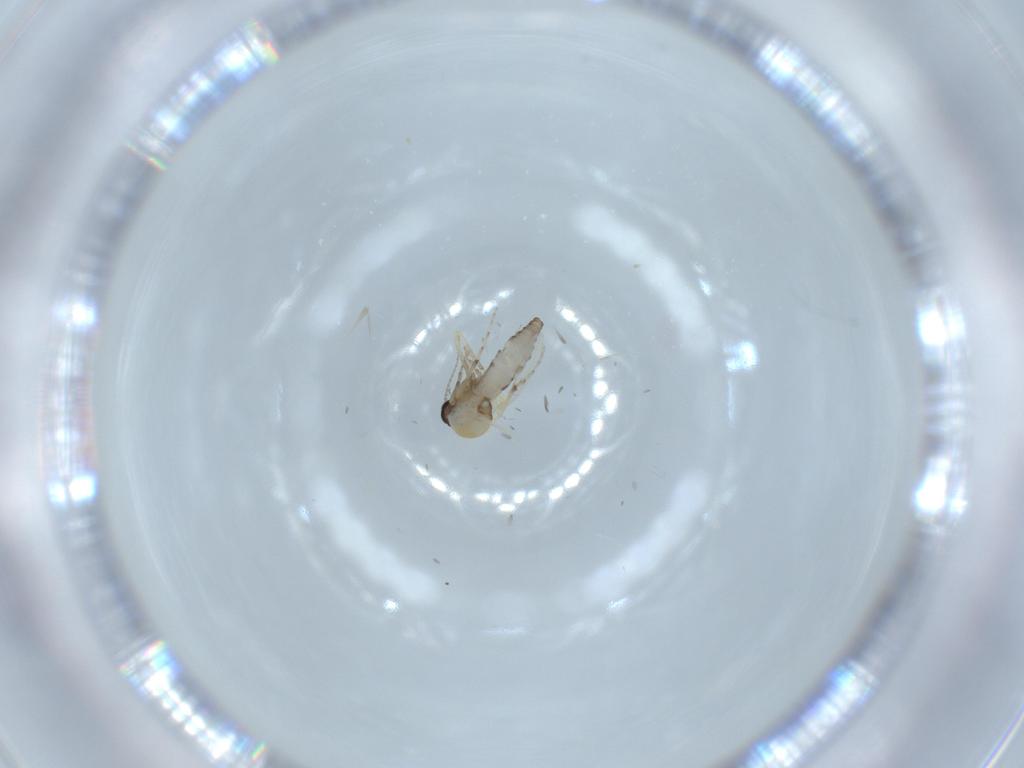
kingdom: Animalia
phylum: Arthropoda
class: Insecta
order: Diptera
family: Ceratopogonidae
